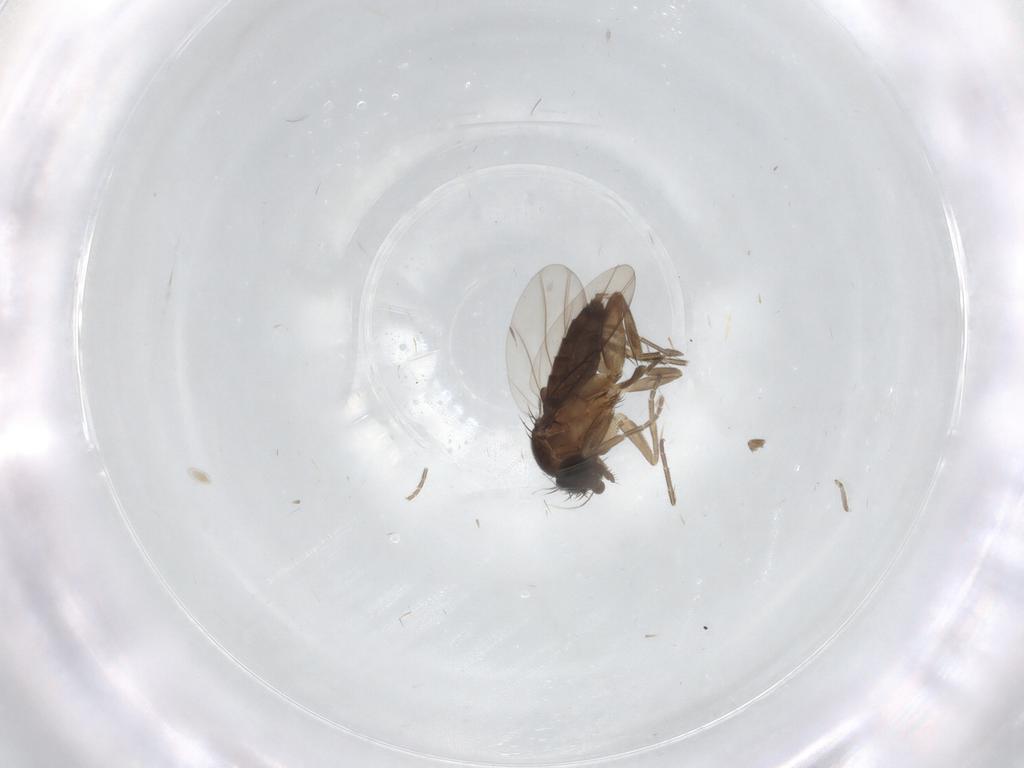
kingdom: Animalia
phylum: Arthropoda
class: Insecta
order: Diptera
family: Phoridae
